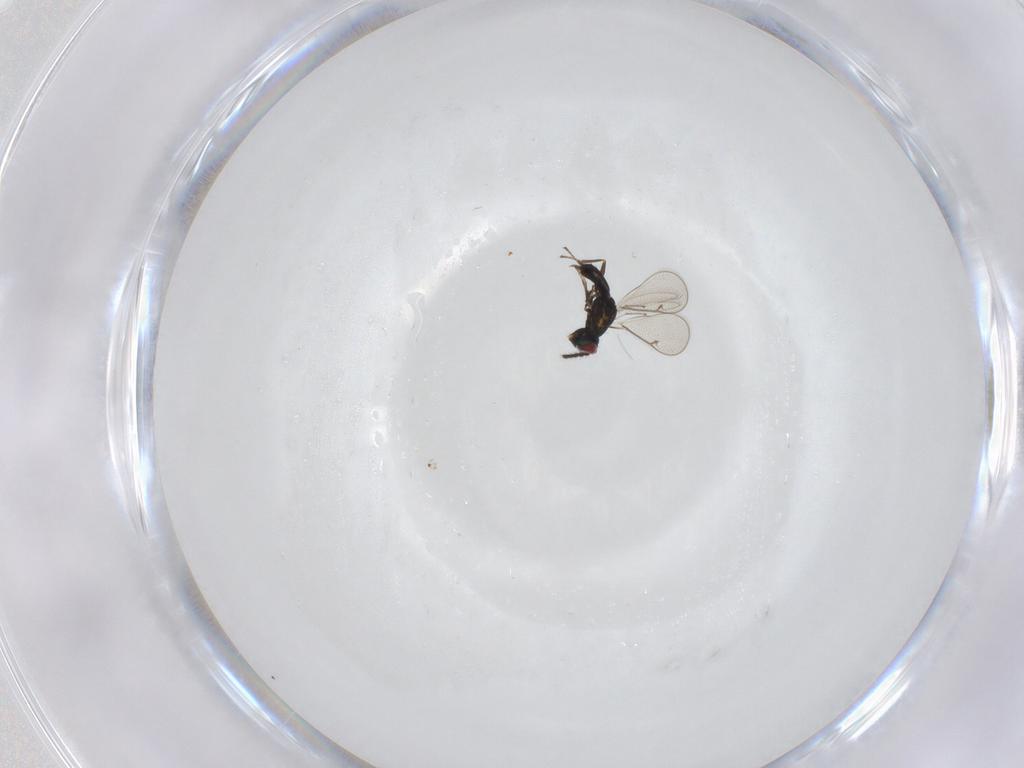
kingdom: Animalia
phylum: Arthropoda
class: Insecta
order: Hymenoptera
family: Eulophidae
